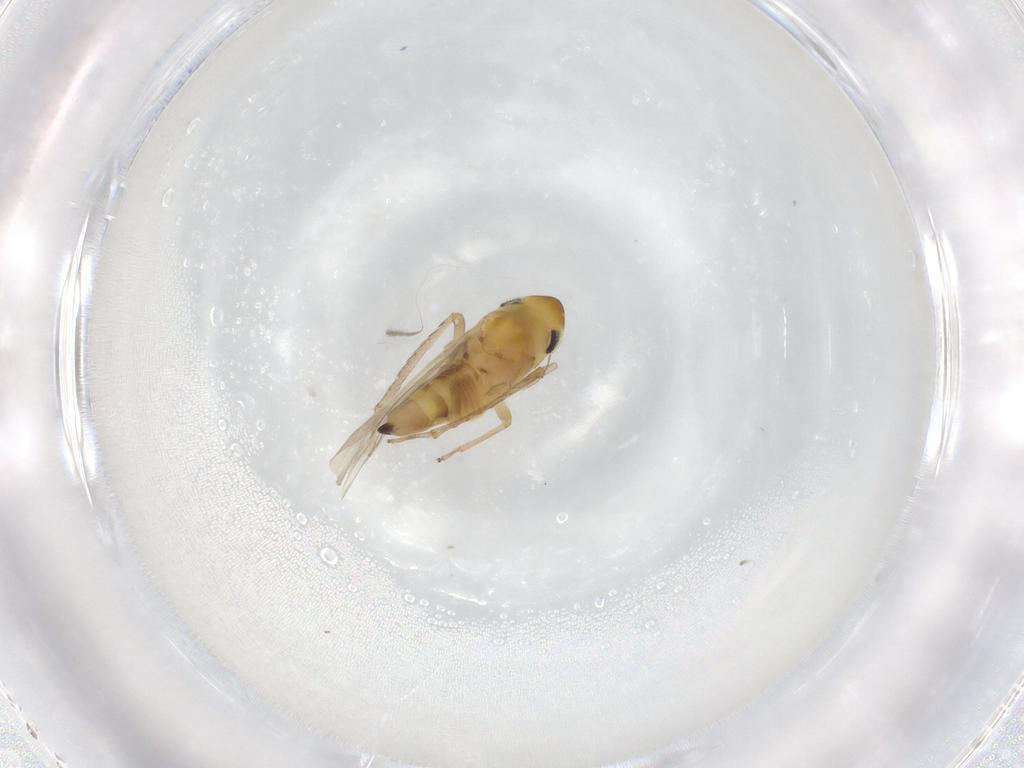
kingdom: Animalia
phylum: Arthropoda
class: Insecta
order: Hemiptera
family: Cicadellidae
